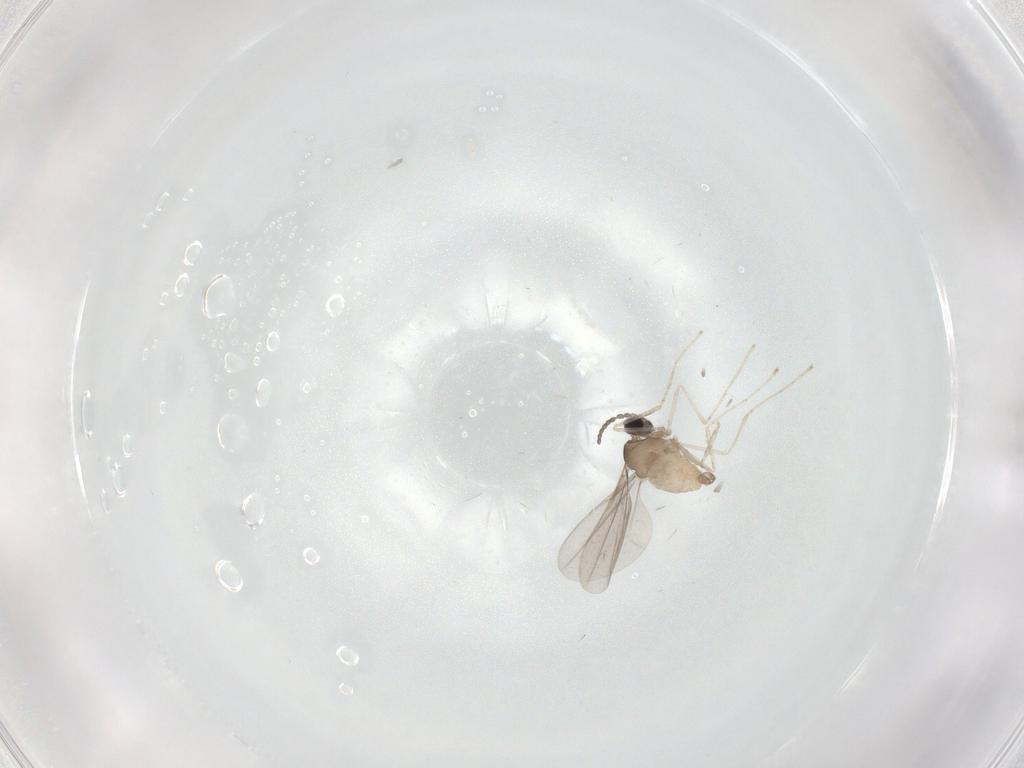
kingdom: Animalia
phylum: Arthropoda
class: Insecta
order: Diptera
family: Cecidomyiidae
